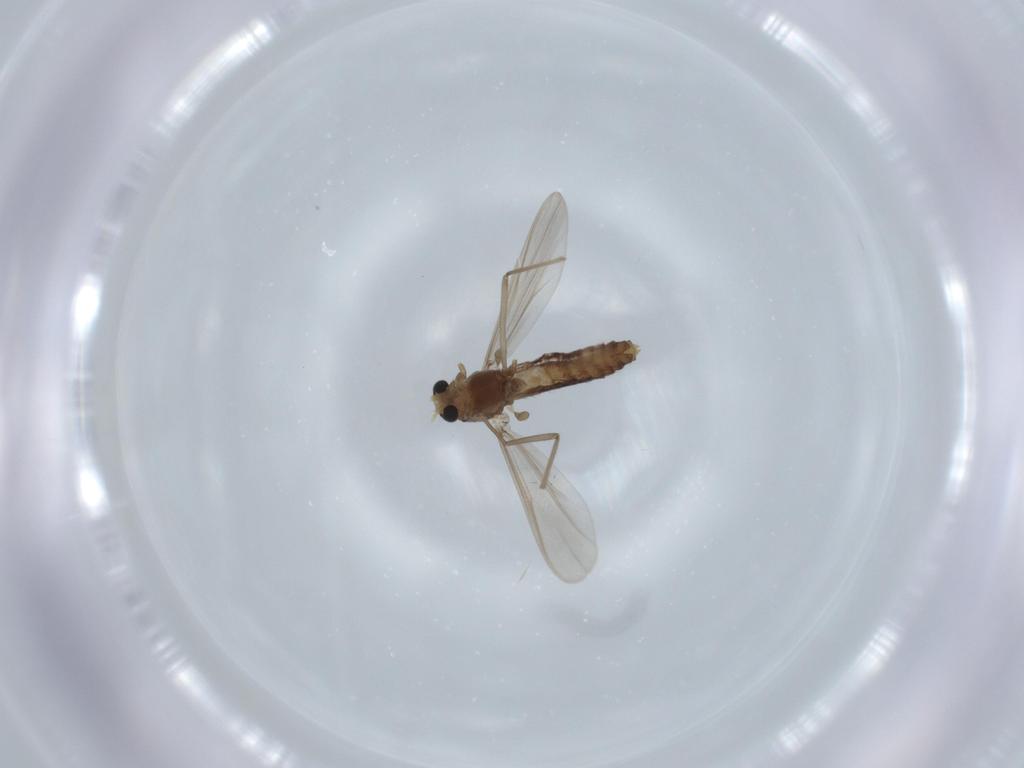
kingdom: Animalia
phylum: Arthropoda
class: Insecta
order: Diptera
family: Chironomidae
